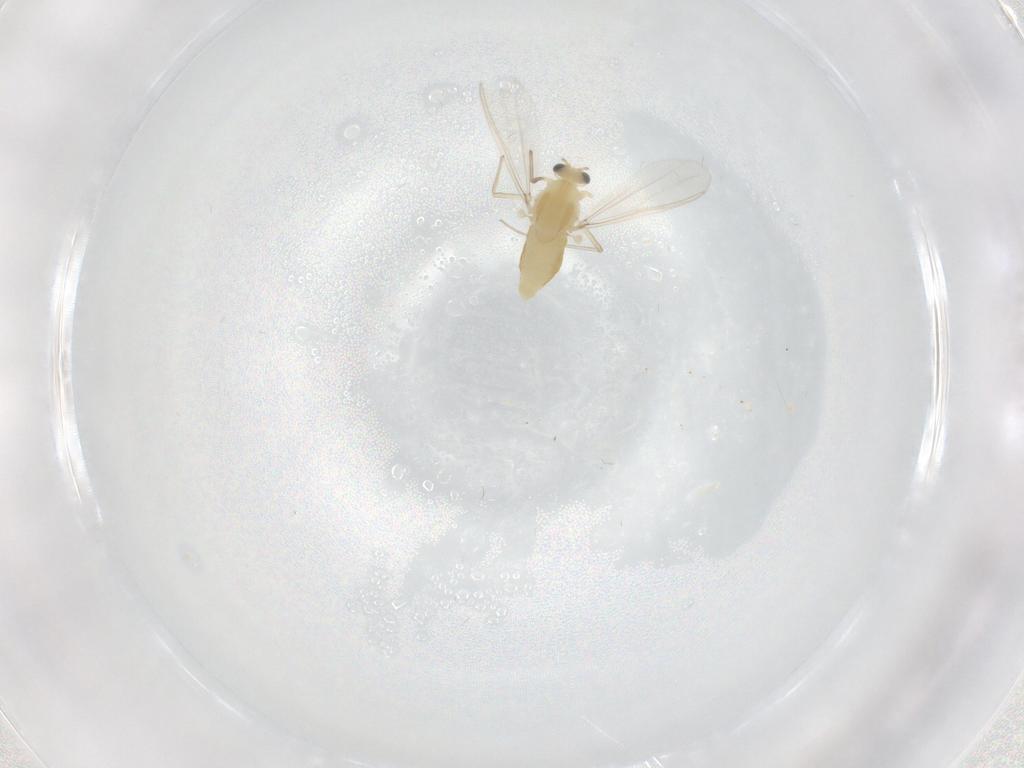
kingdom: Animalia
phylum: Arthropoda
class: Insecta
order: Diptera
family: Chironomidae
